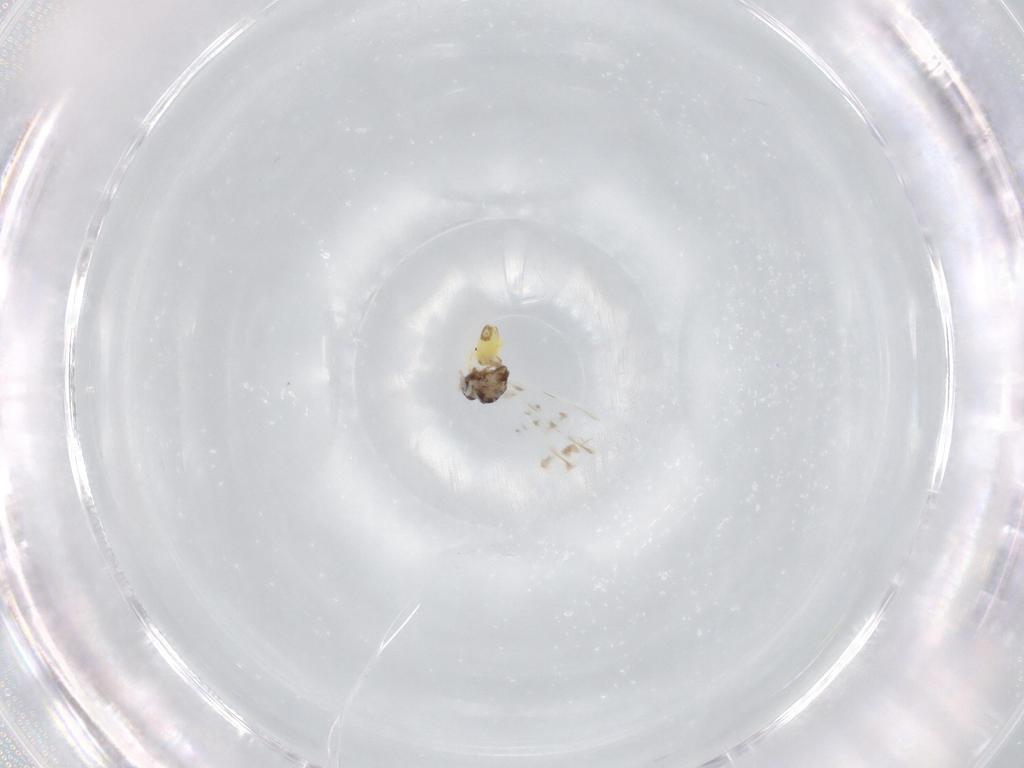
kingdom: Animalia
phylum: Arthropoda
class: Insecta
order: Hemiptera
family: Aleyrodidae
